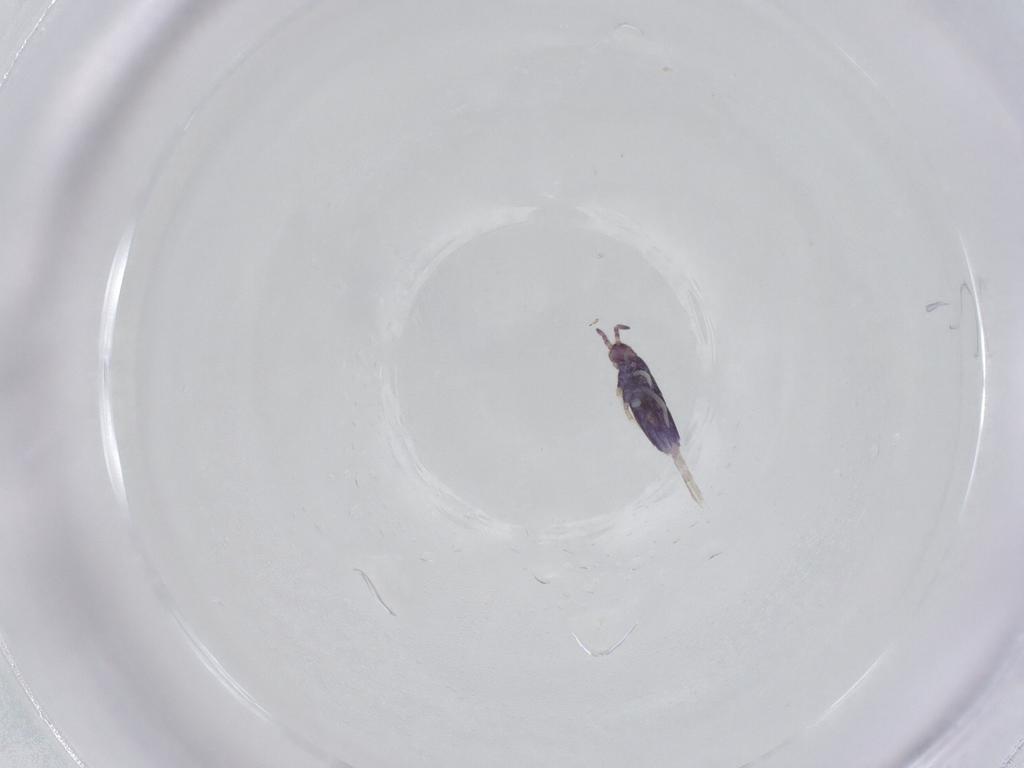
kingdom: Animalia
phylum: Arthropoda
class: Collembola
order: Entomobryomorpha
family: Entomobryidae
